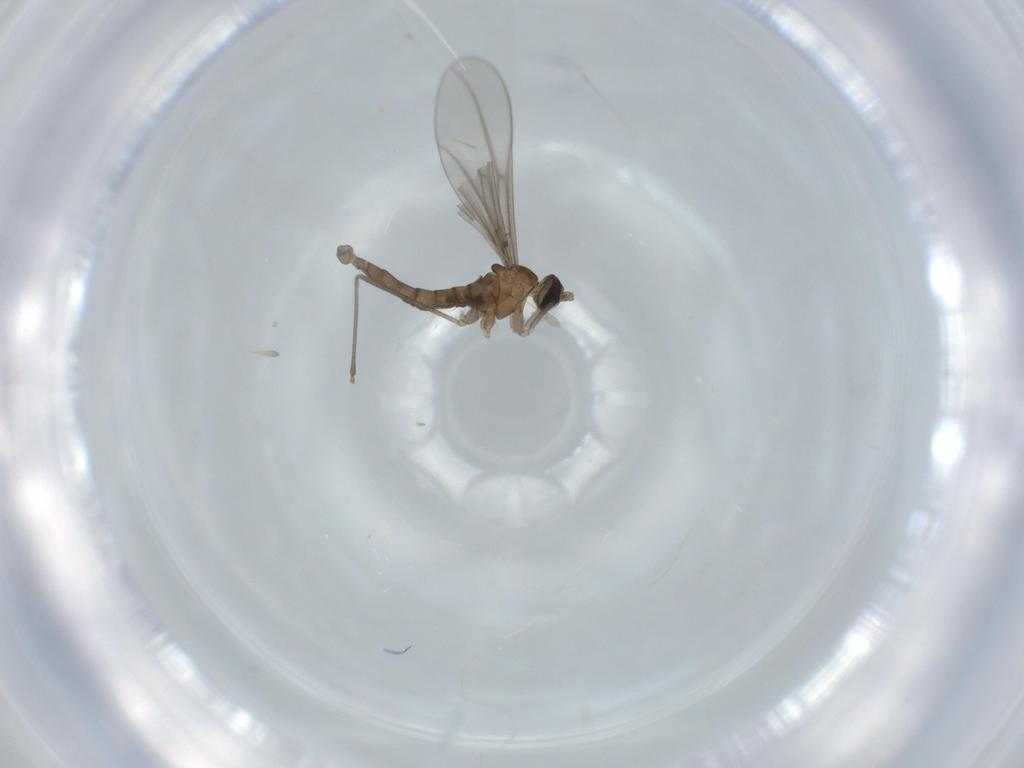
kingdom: Animalia
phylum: Arthropoda
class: Insecta
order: Diptera
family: Cecidomyiidae
